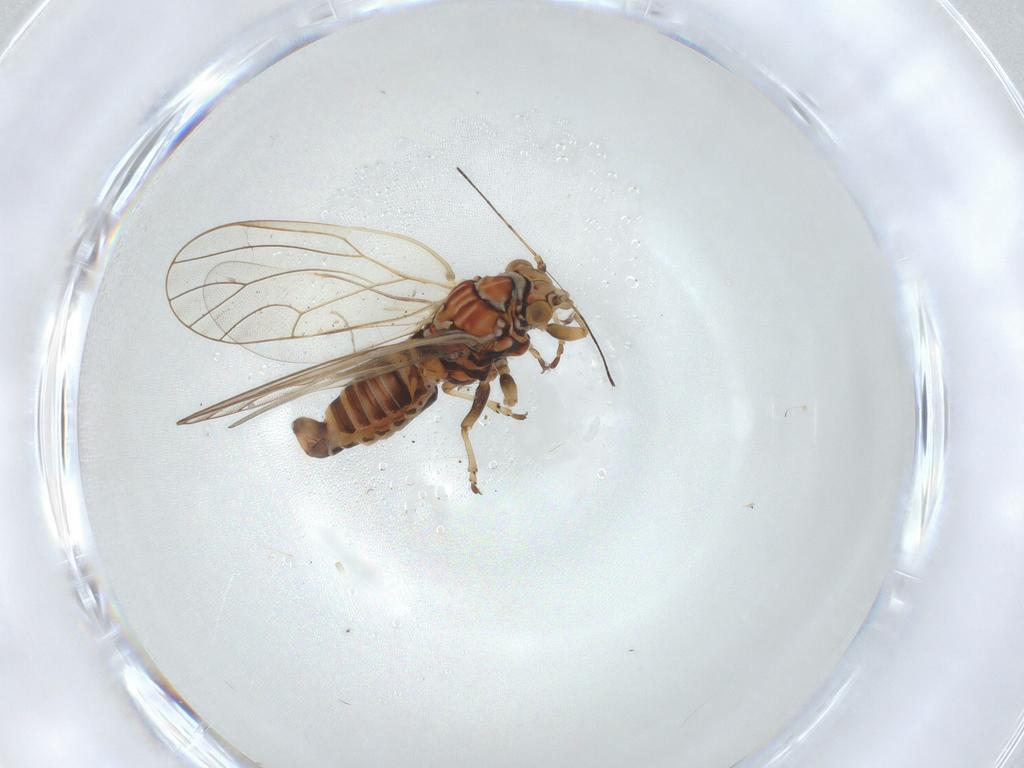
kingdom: Animalia
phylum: Arthropoda
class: Insecta
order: Hemiptera
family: Psyllidae
